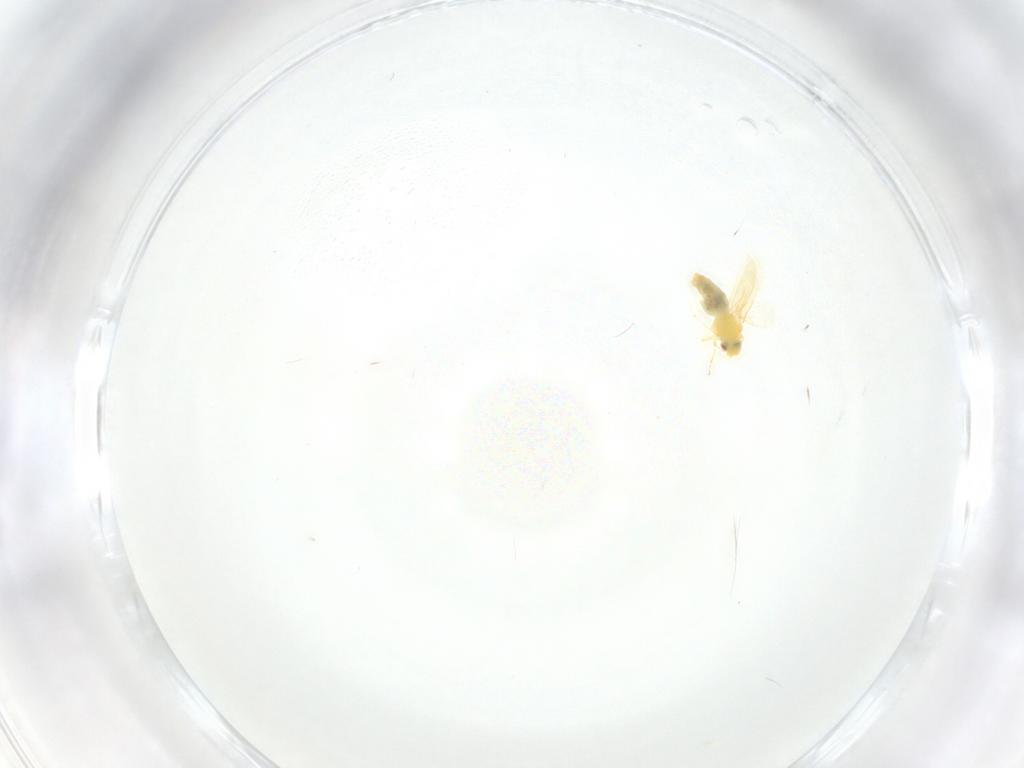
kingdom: Animalia
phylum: Arthropoda
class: Insecta
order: Hemiptera
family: Aleyrodidae
